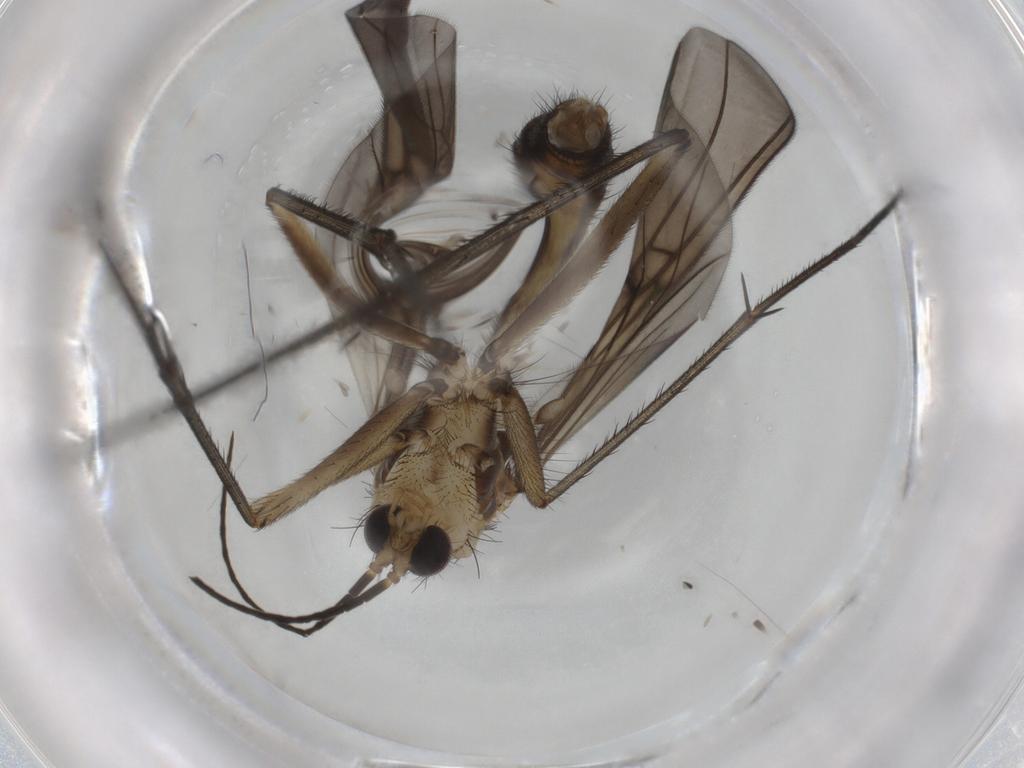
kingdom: Animalia
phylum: Arthropoda
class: Insecta
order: Diptera
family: Mycetophilidae
